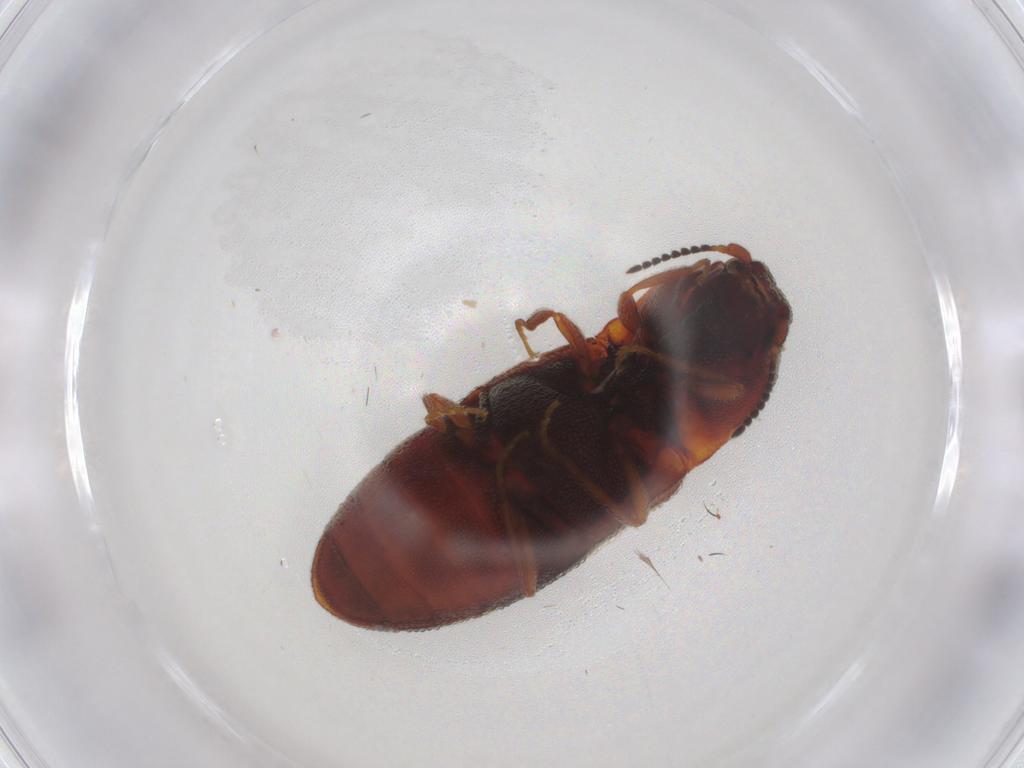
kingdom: Animalia
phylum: Arthropoda
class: Insecta
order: Coleoptera
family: Elateridae
